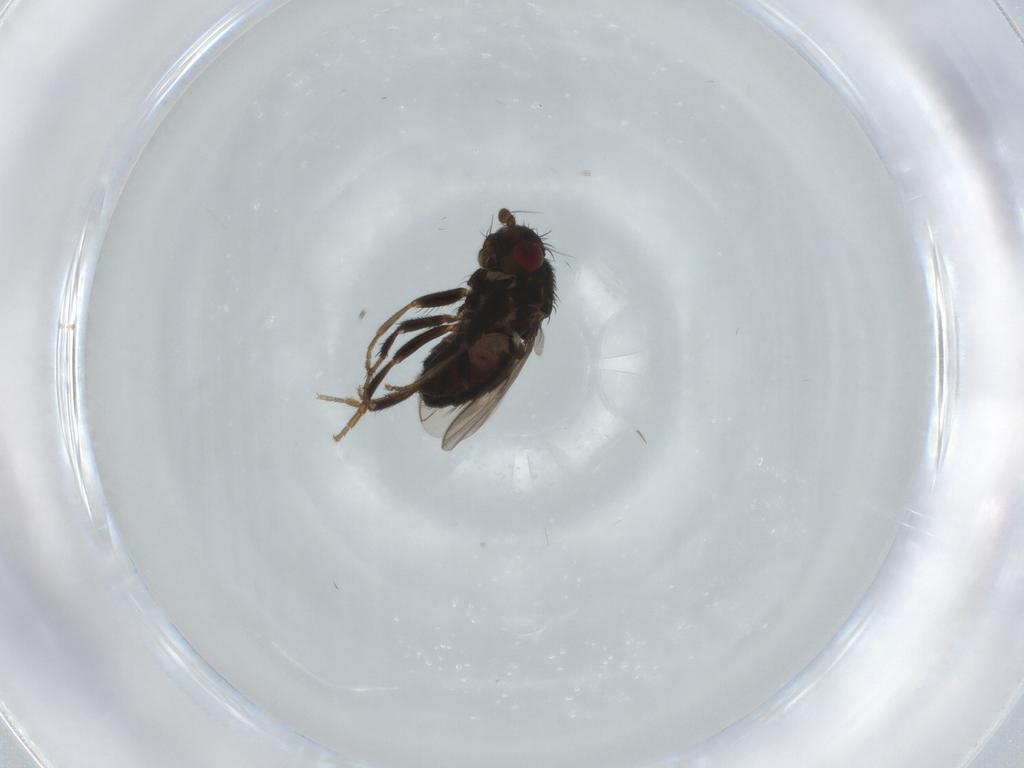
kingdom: Animalia
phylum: Arthropoda
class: Insecta
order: Diptera
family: Sphaeroceridae
